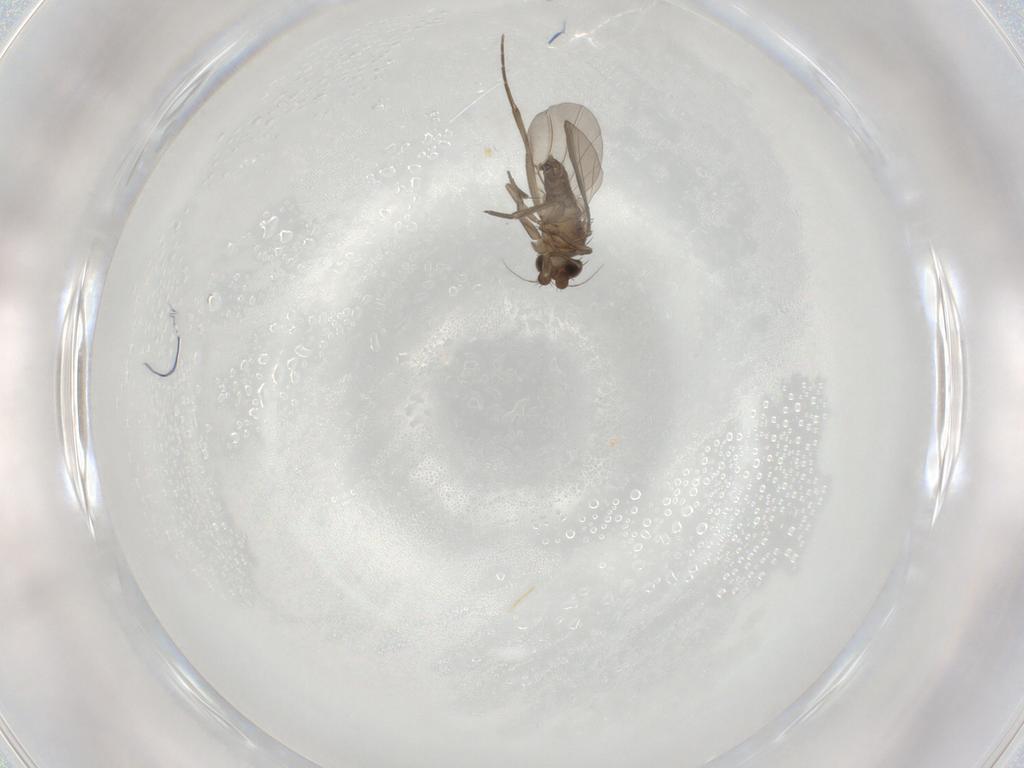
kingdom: Animalia
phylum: Arthropoda
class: Insecta
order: Diptera
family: Phoridae
